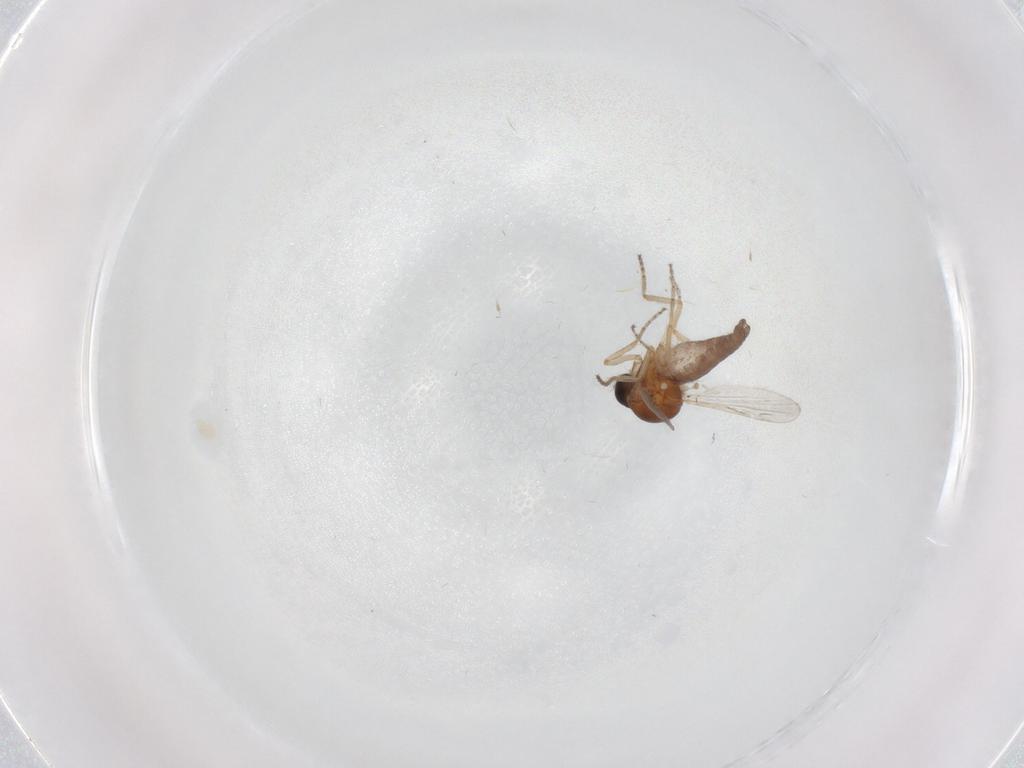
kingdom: Animalia
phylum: Arthropoda
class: Insecta
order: Diptera
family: Ceratopogonidae
